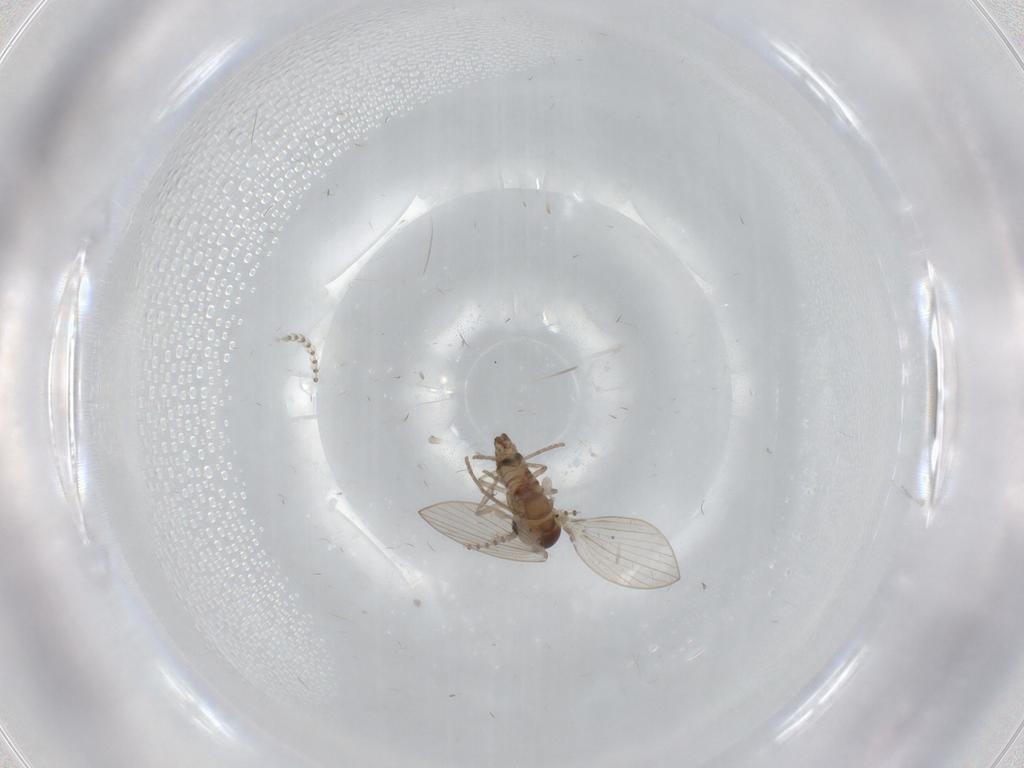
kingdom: Animalia
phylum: Arthropoda
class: Insecta
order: Diptera
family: Psychodidae
